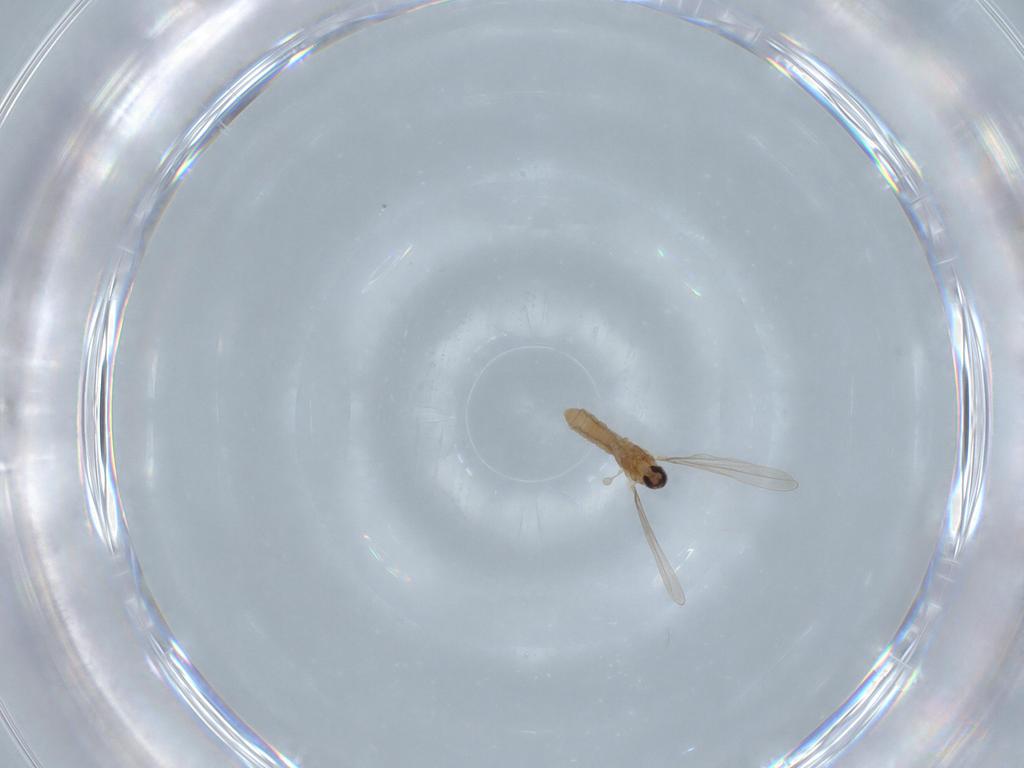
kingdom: Animalia
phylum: Arthropoda
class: Insecta
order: Diptera
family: Cecidomyiidae
